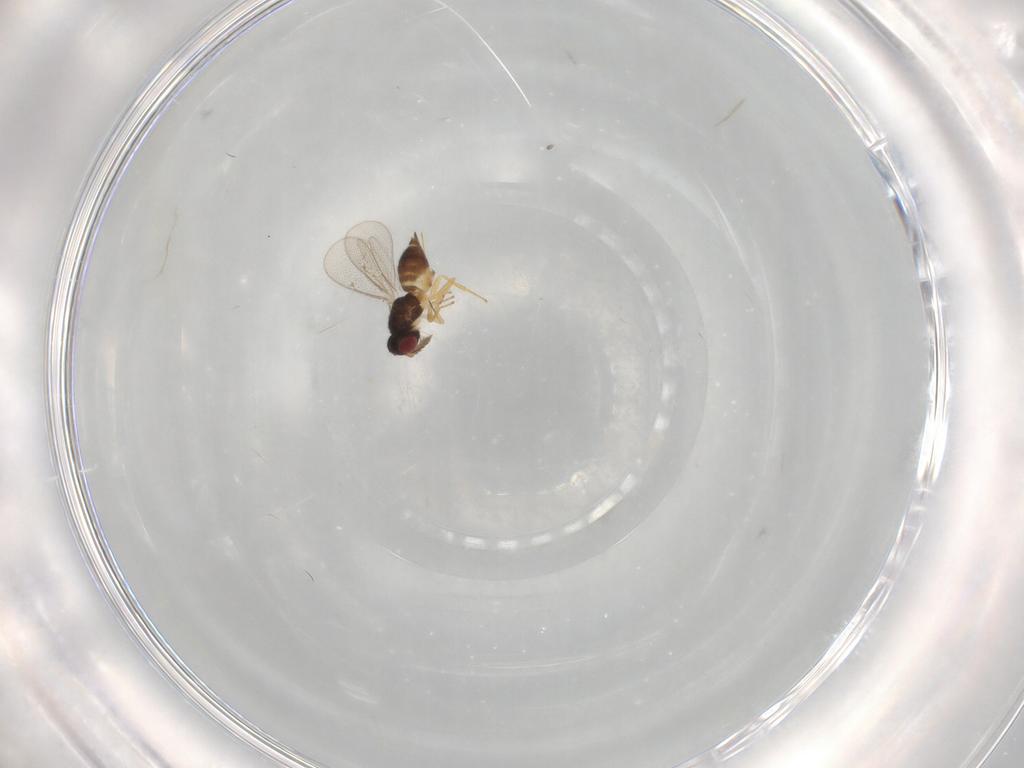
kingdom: Animalia
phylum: Arthropoda
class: Insecta
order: Hymenoptera
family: Eulophidae
